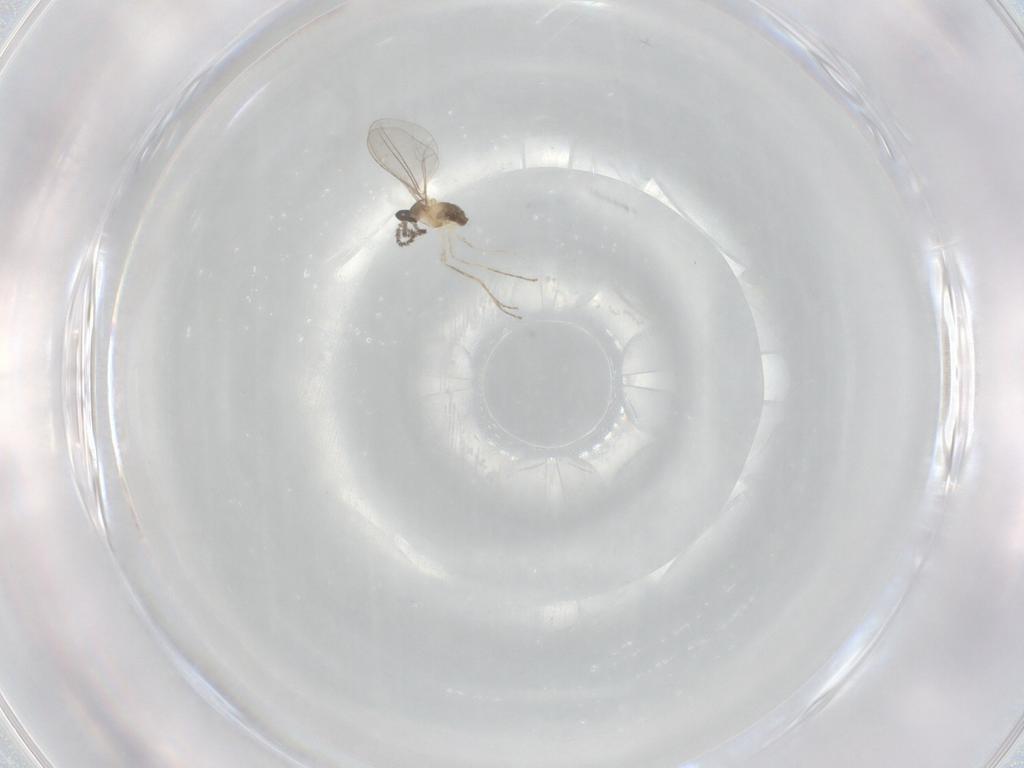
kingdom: Animalia
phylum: Arthropoda
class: Insecta
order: Diptera
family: Cecidomyiidae
